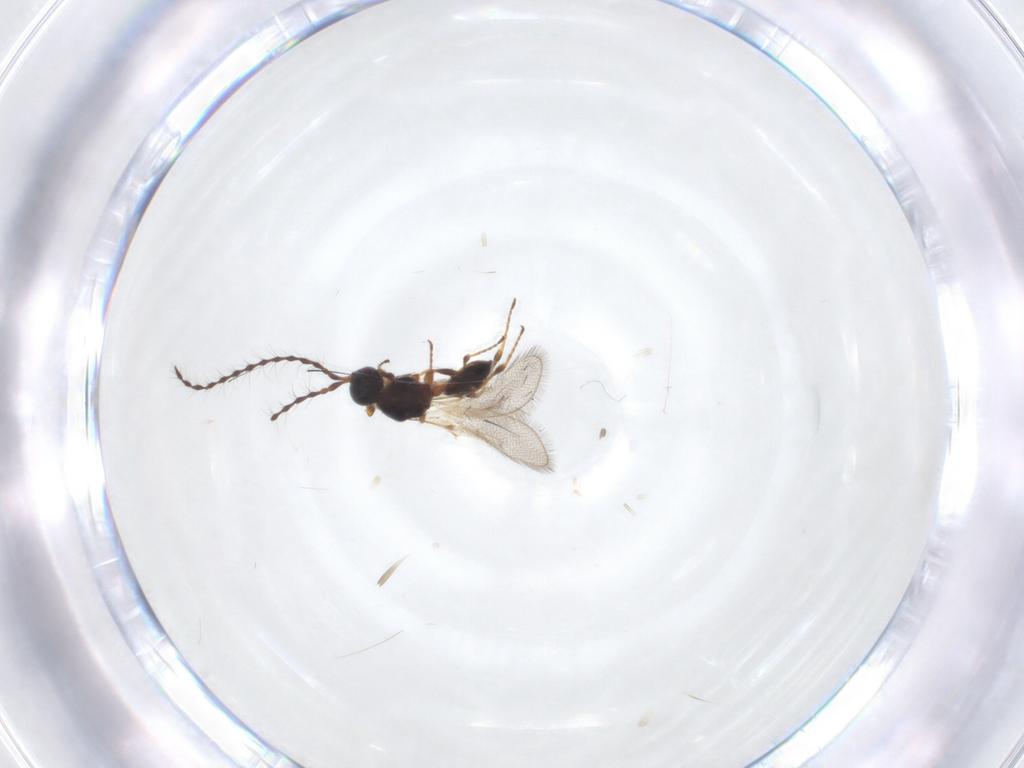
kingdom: Animalia
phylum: Arthropoda
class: Insecta
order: Hymenoptera
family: Diapriidae
